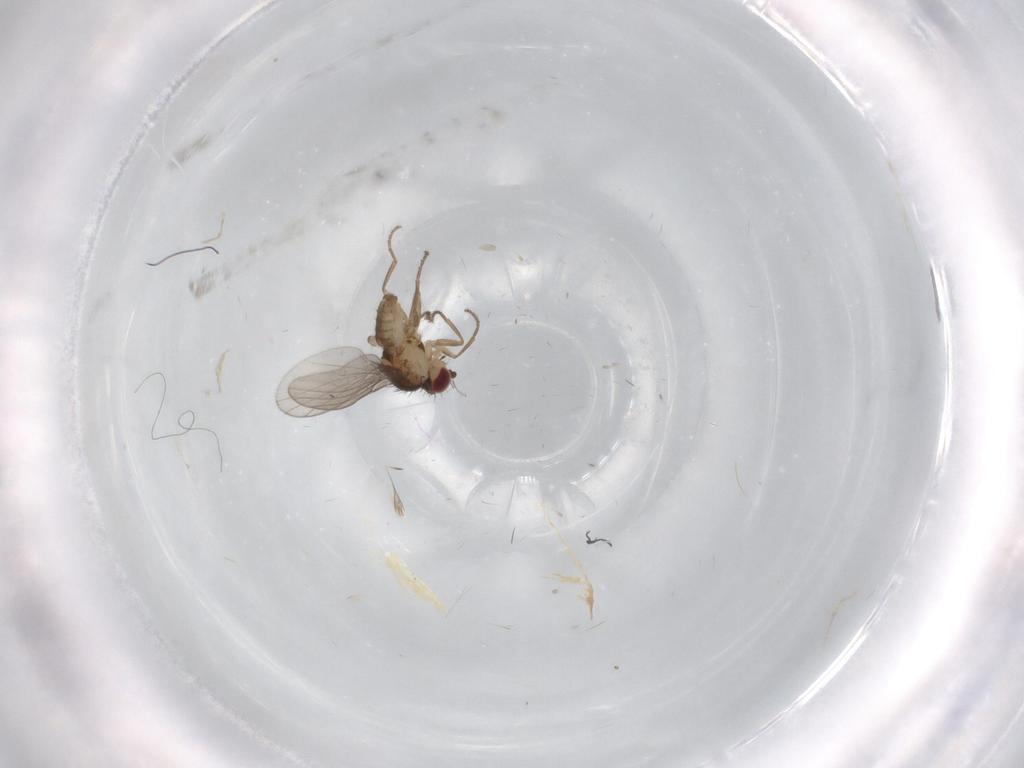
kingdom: Animalia
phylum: Arthropoda
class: Insecta
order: Diptera
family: Agromyzidae
